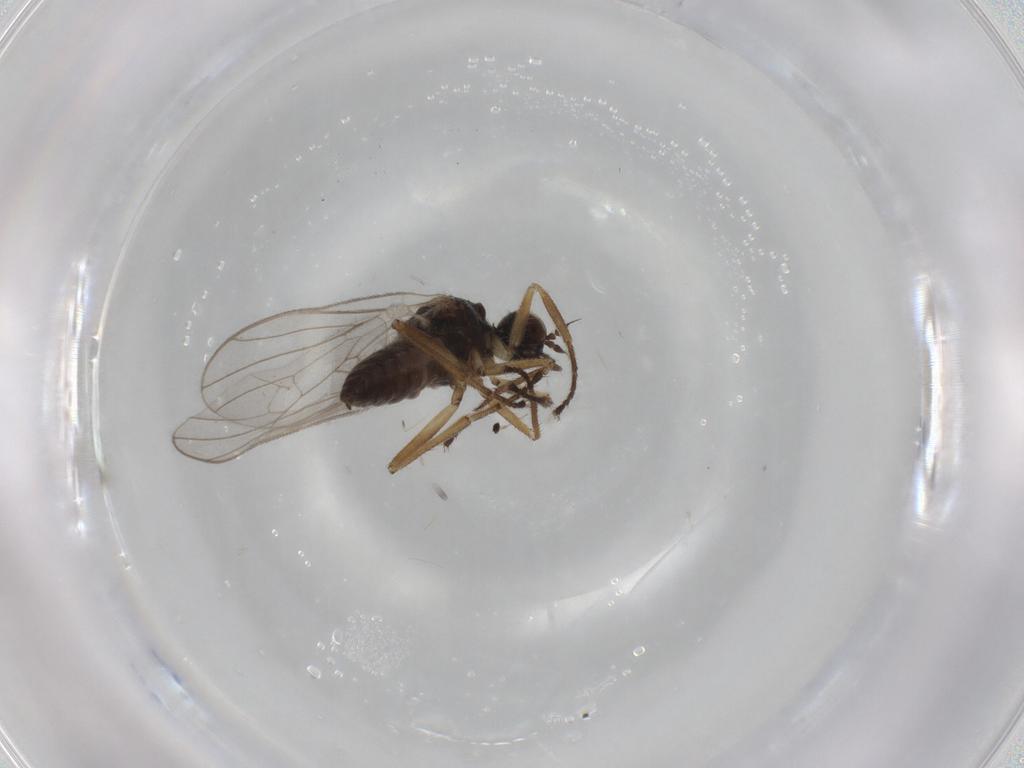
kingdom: Animalia
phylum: Arthropoda
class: Insecta
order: Diptera
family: Hybotidae
